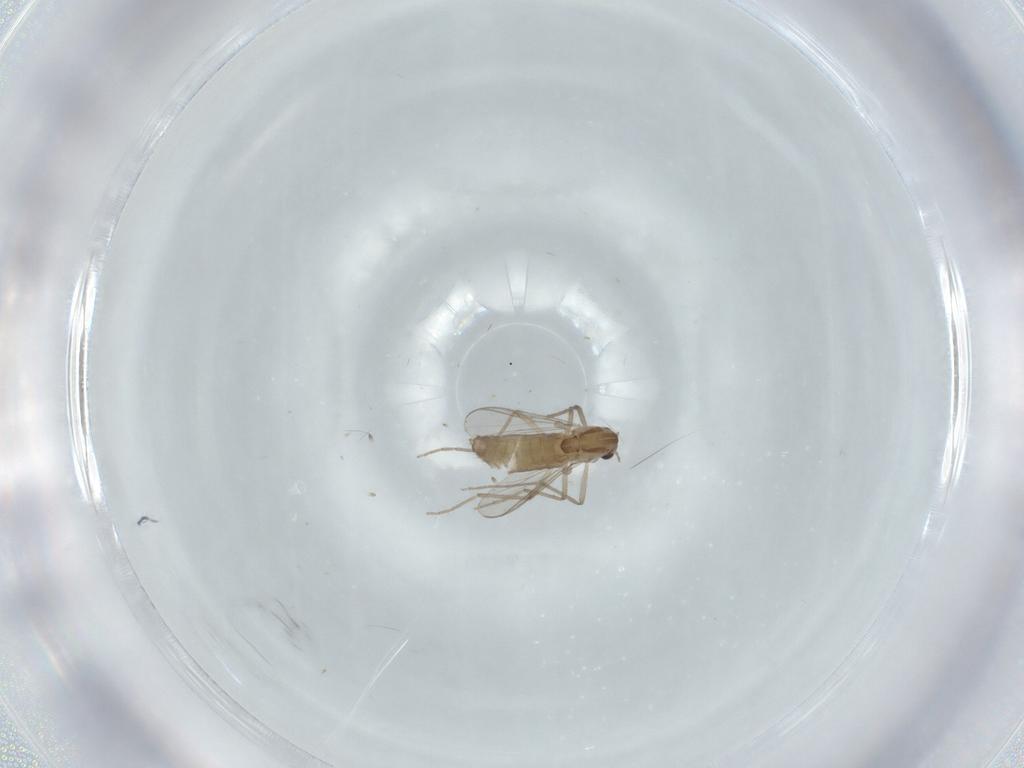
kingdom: Animalia
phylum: Arthropoda
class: Insecta
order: Diptera
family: Chironomidae
